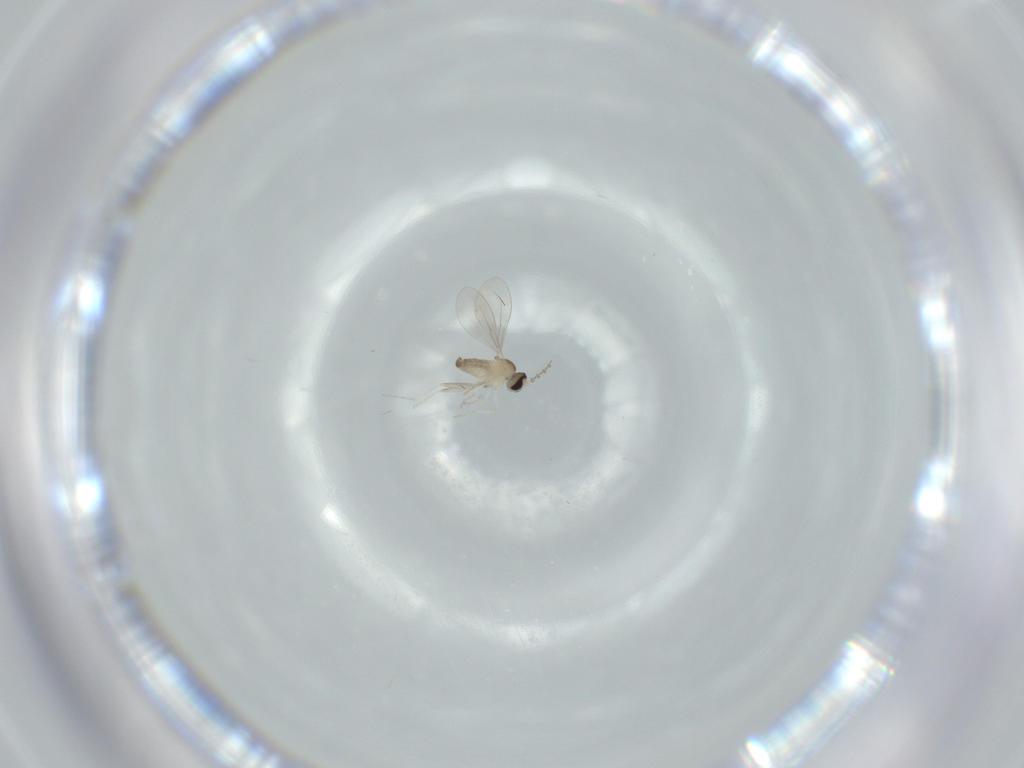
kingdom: Animalia
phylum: Arthropoda
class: Insecta
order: Diptera
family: Cecidomyiidae
